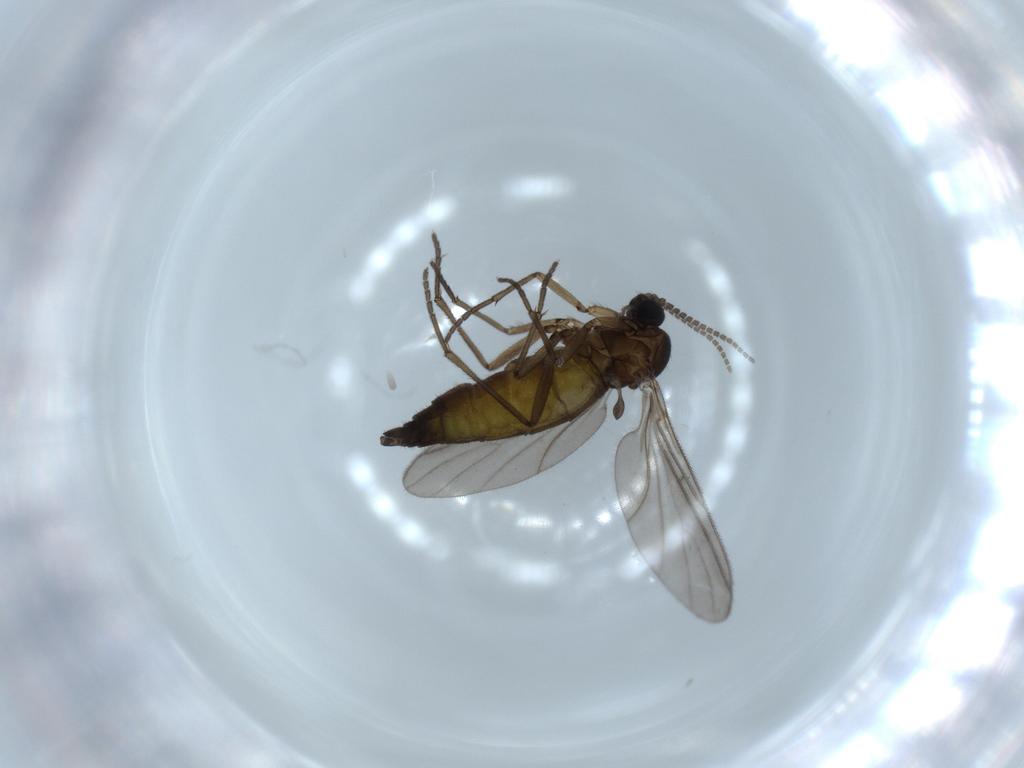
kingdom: Animalia
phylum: Arthropoda
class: Insecta
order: Diptera
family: Sciaridae
